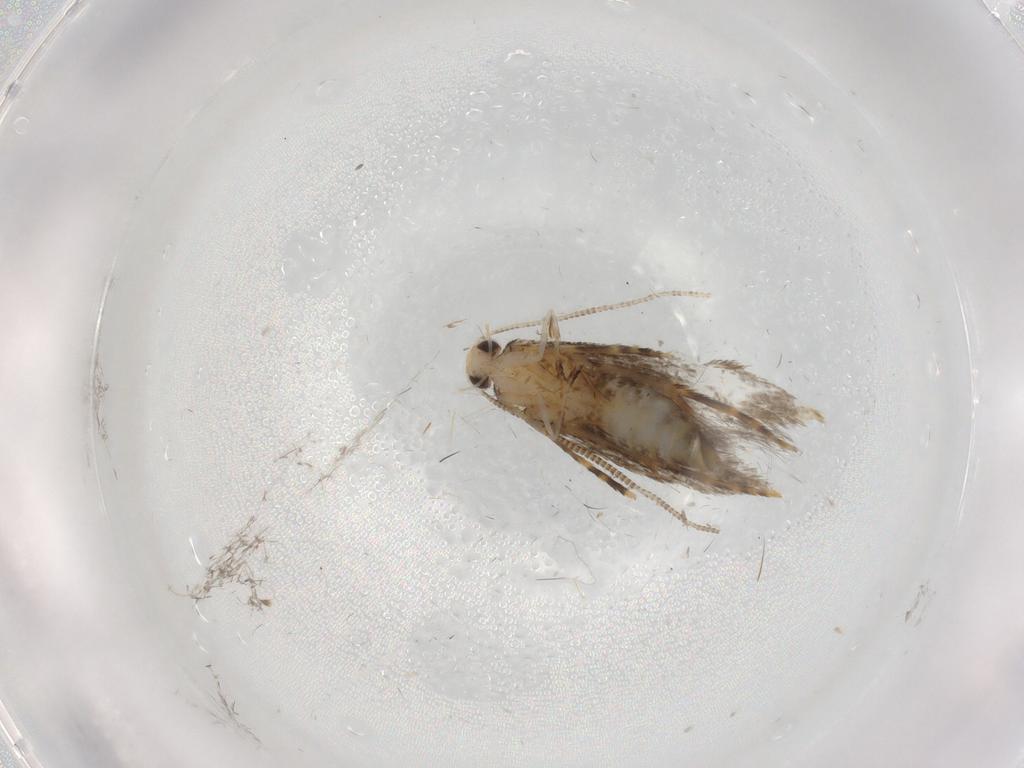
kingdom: Animalia
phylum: Arthropoda
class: Insecta
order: Lepidoptera
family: Tineidae
